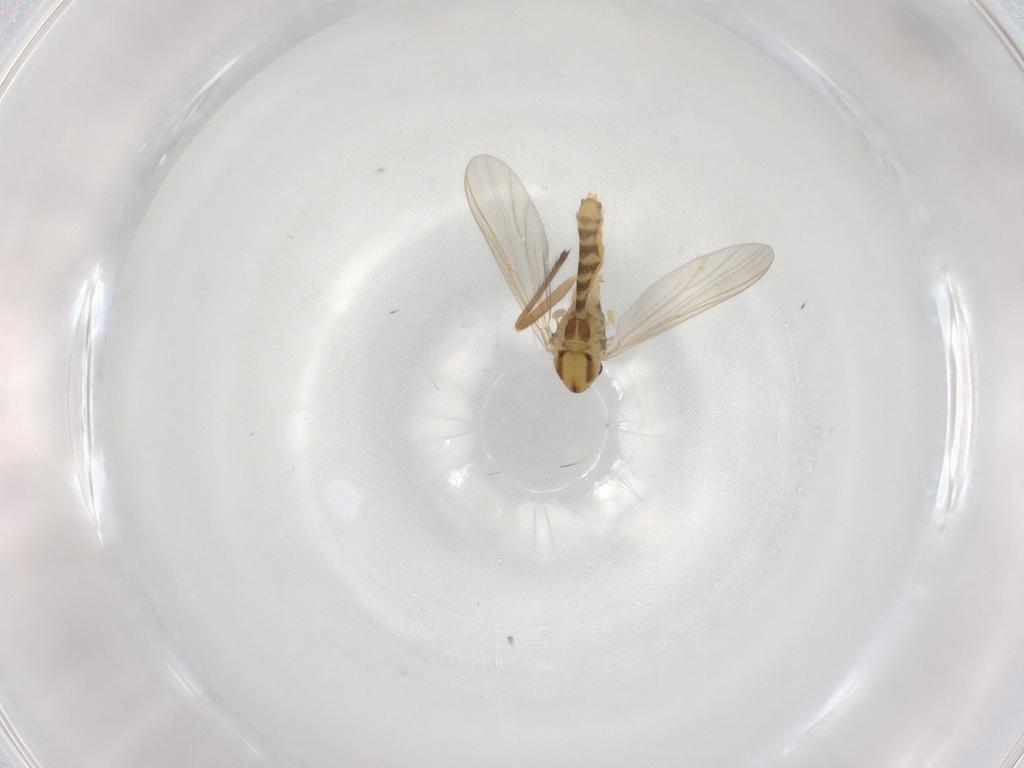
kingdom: Animalia
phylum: Arthropoda
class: Insecta
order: Diptera
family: Chironomidae
